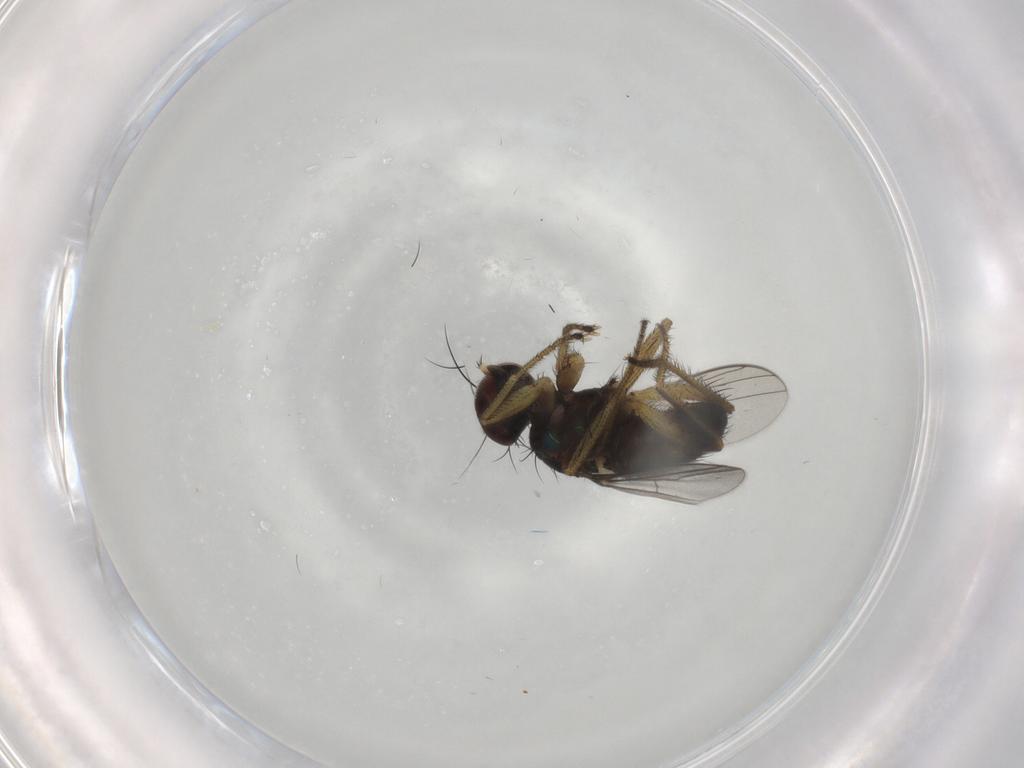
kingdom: Animalia
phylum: Arthropoda
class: Insecta
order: Diptera
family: Dolichopodidae
